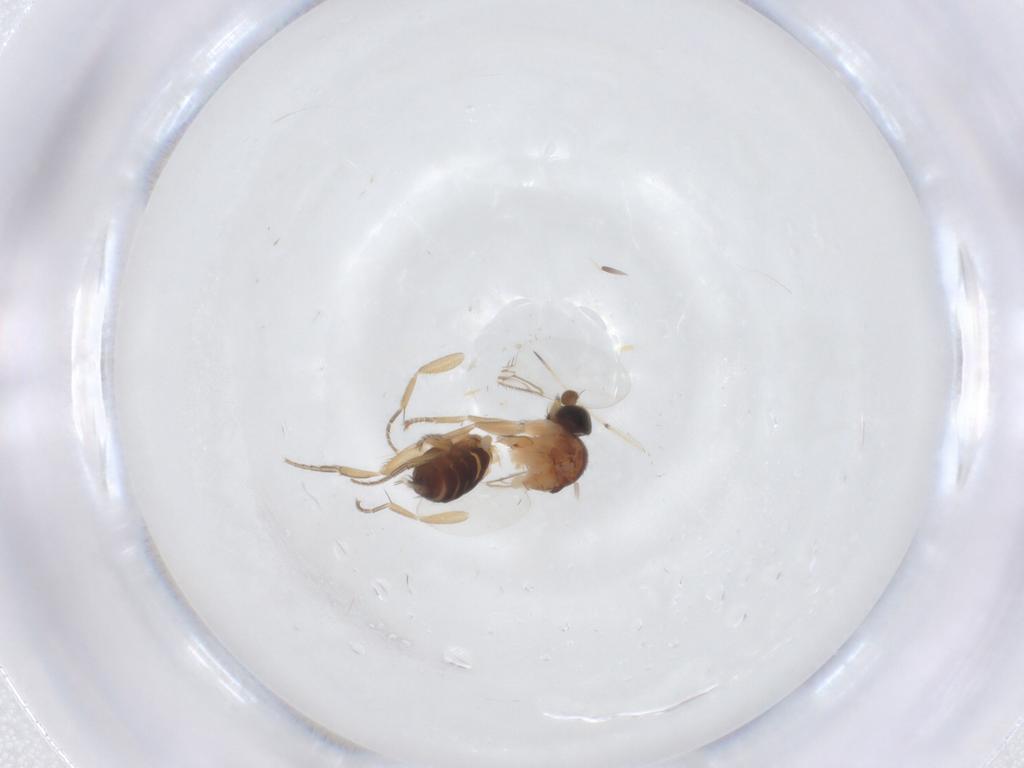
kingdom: Animalia
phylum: Arthropoda
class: Insecta
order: Diptera
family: Phoridae
